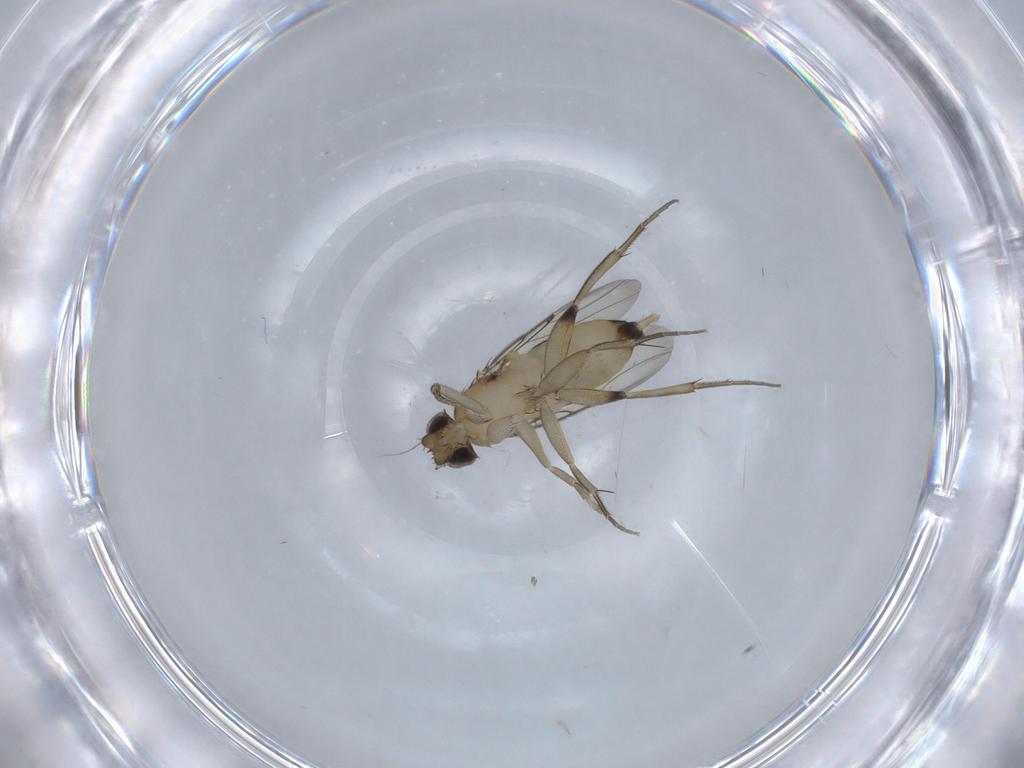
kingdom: Animalia
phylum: Arthropoda
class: Insecta
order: Diptera
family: Phoridae
